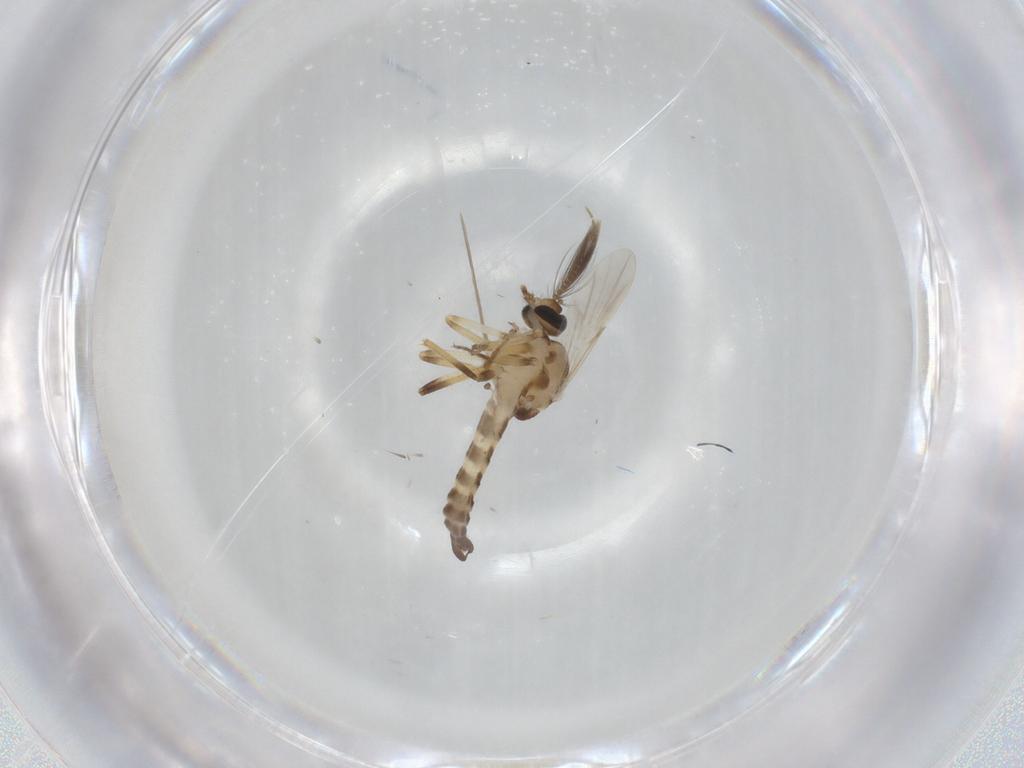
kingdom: Animalia
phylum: Arthropoda
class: Insecta
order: Diptera
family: Ceratopogonidae
